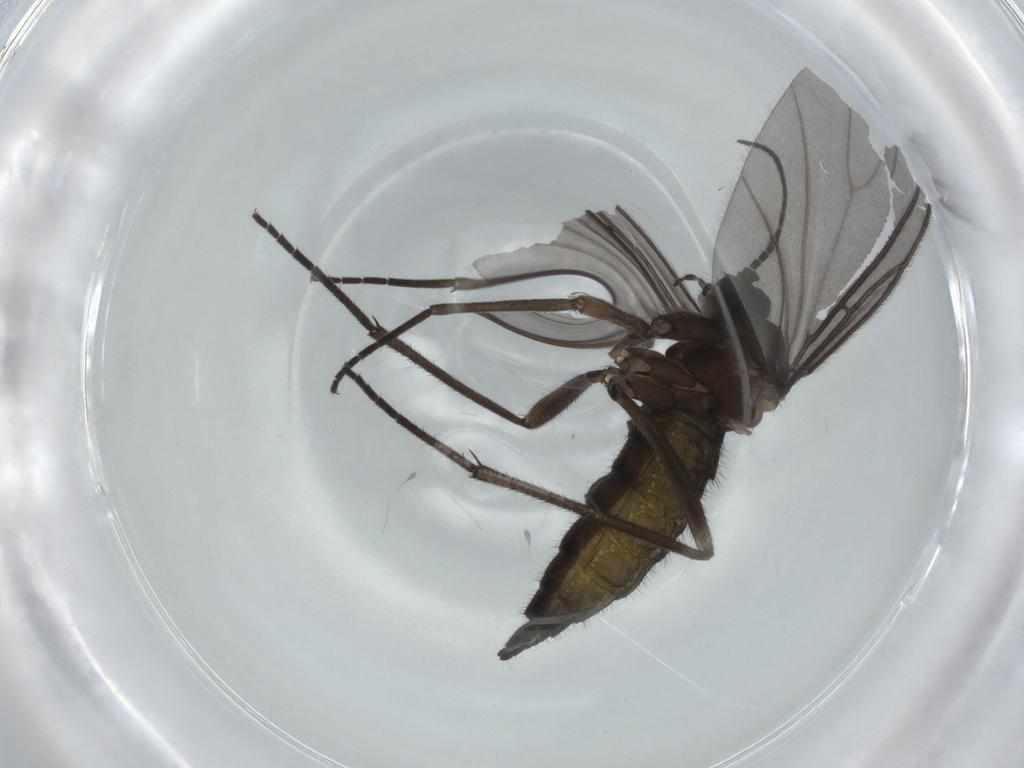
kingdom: Animalia
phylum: Arthropoda
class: Insecta
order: Diptera
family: Sciaridae
